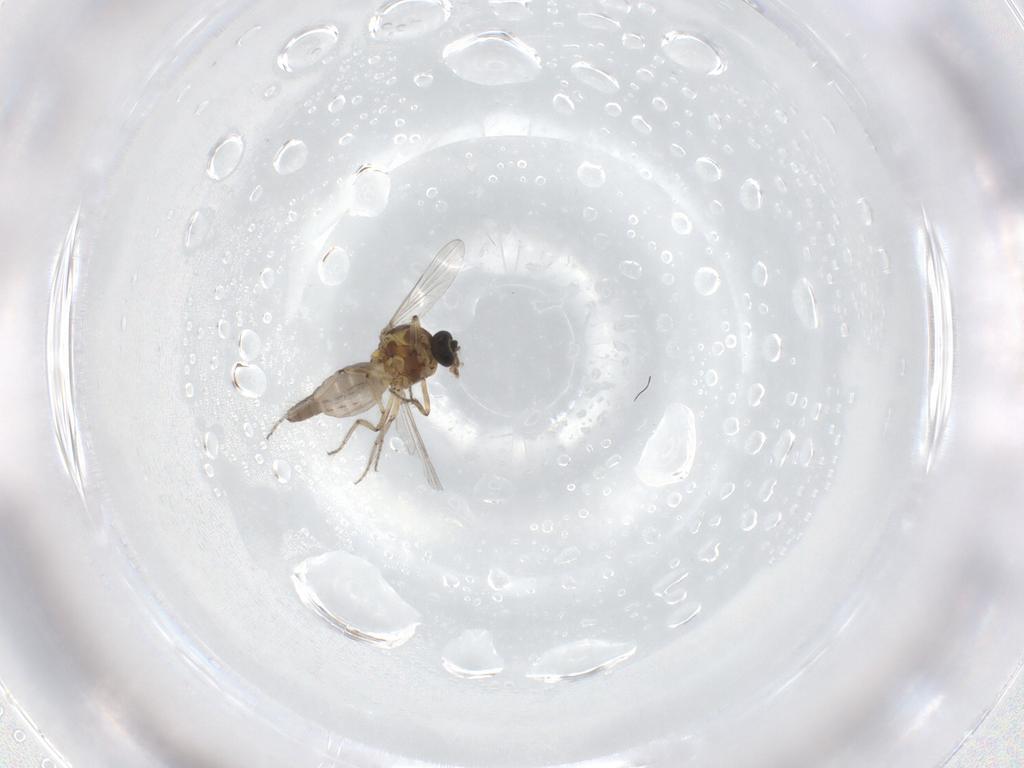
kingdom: Animalia
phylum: Arthropoda
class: Insecta
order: Diptera
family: Ceratopogonidae
